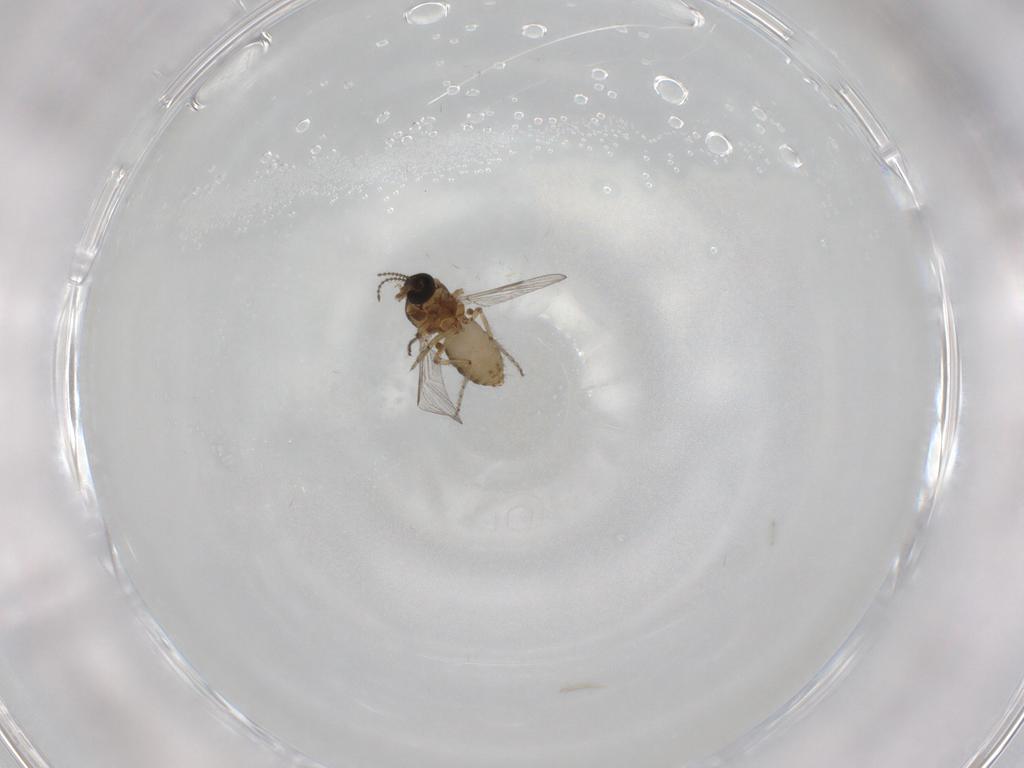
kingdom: Animalia
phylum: Arthropoda
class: Insecta
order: Diptera
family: Ceratopogonidae
